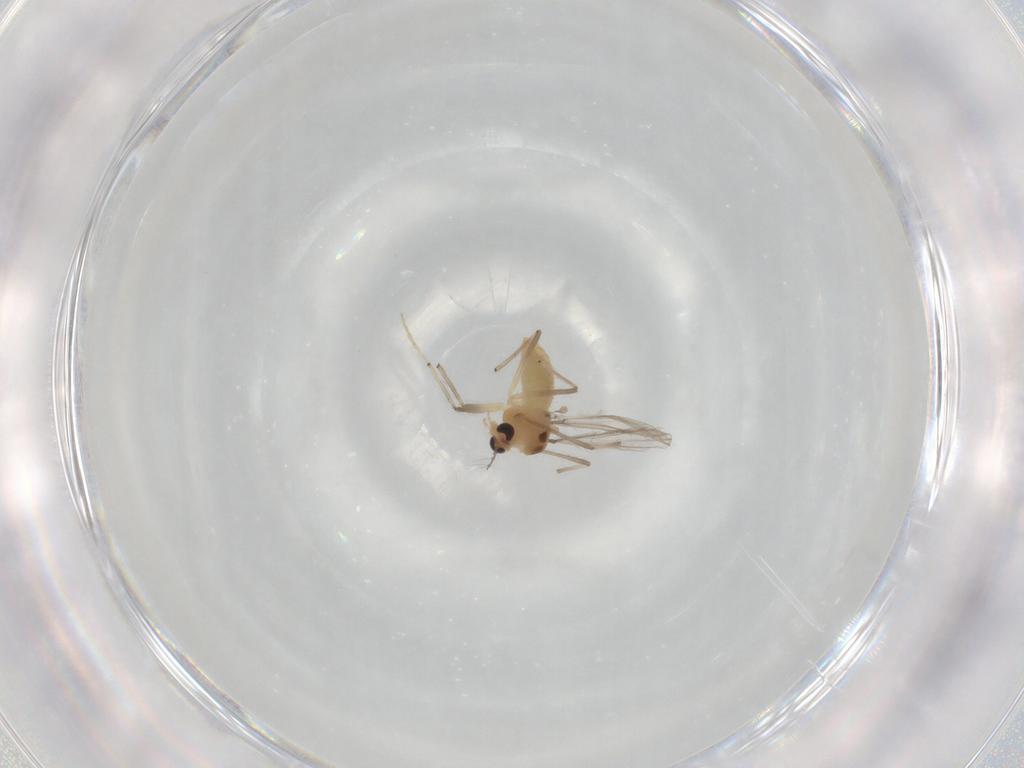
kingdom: Animalia
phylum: Arthropoda
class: Insecta
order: Diptera
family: Chironomidae
